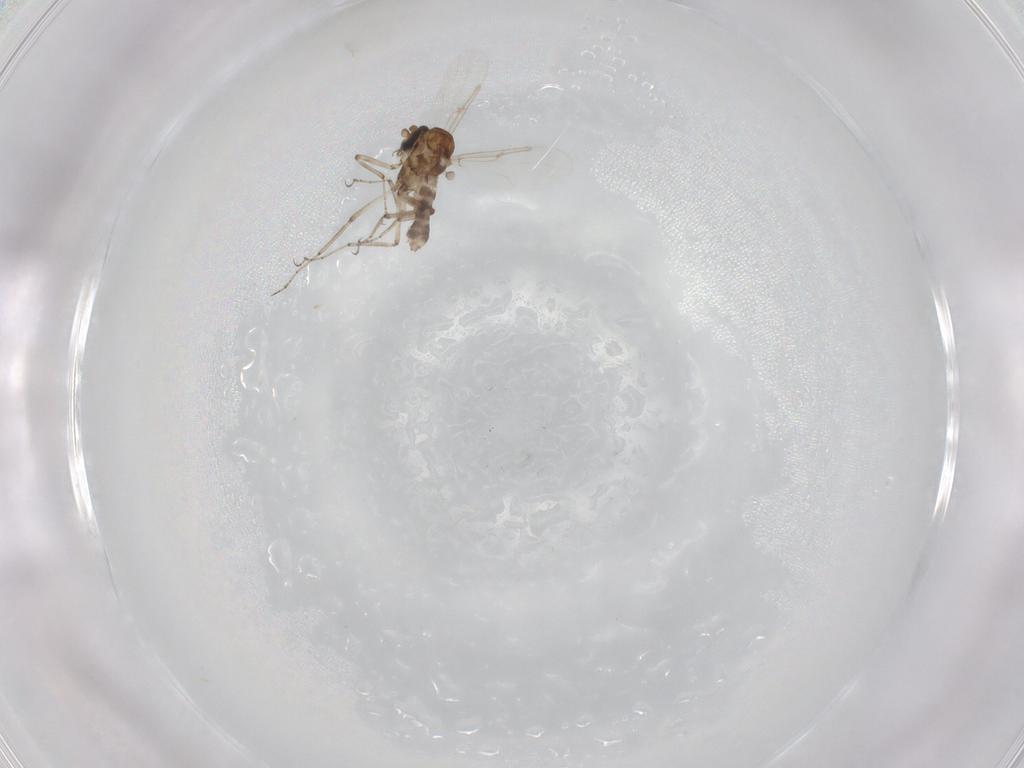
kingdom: Animalia
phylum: Arthropoda
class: Insecta
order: Diptera
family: Ceratopogonidae
